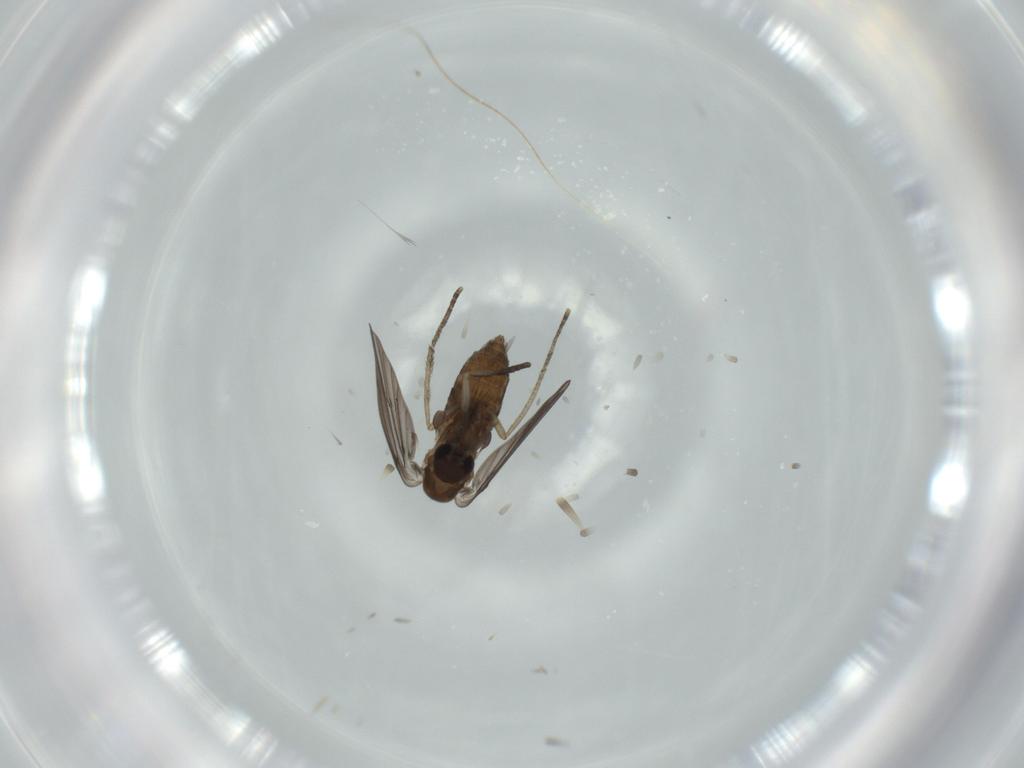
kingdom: Animalia
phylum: Arthropoda
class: Insecta
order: Diptera
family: Psychodidae
